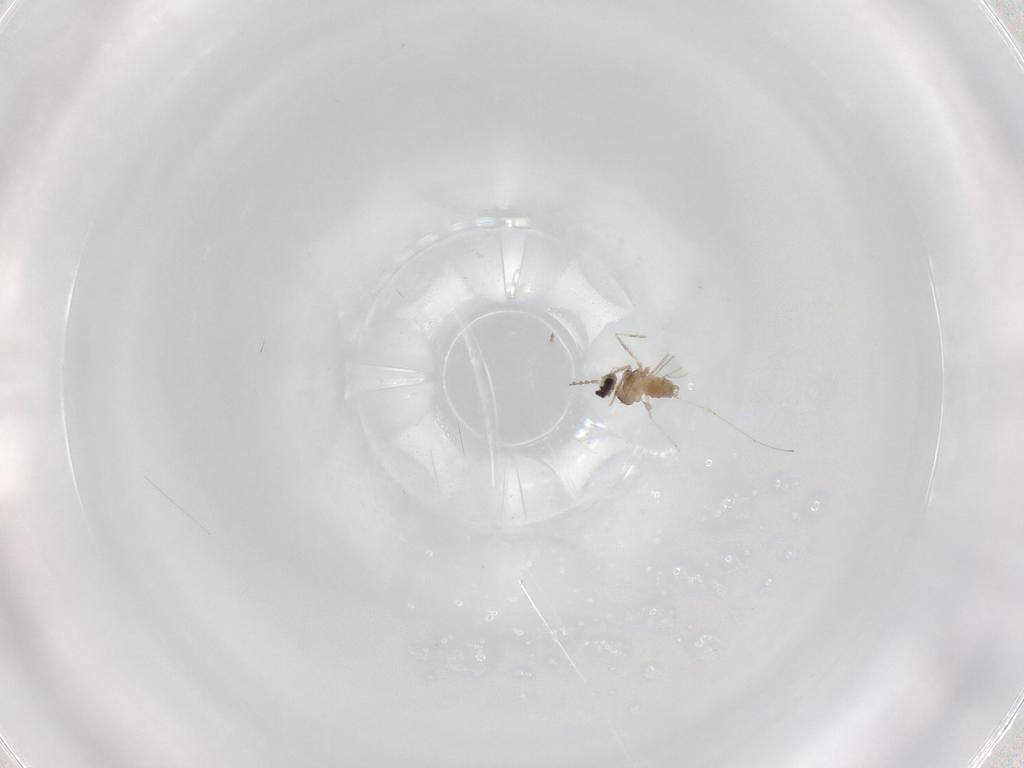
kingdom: Animalia
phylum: Arthropoda
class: Insecta
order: Diptera
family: Cecidomyiidae
